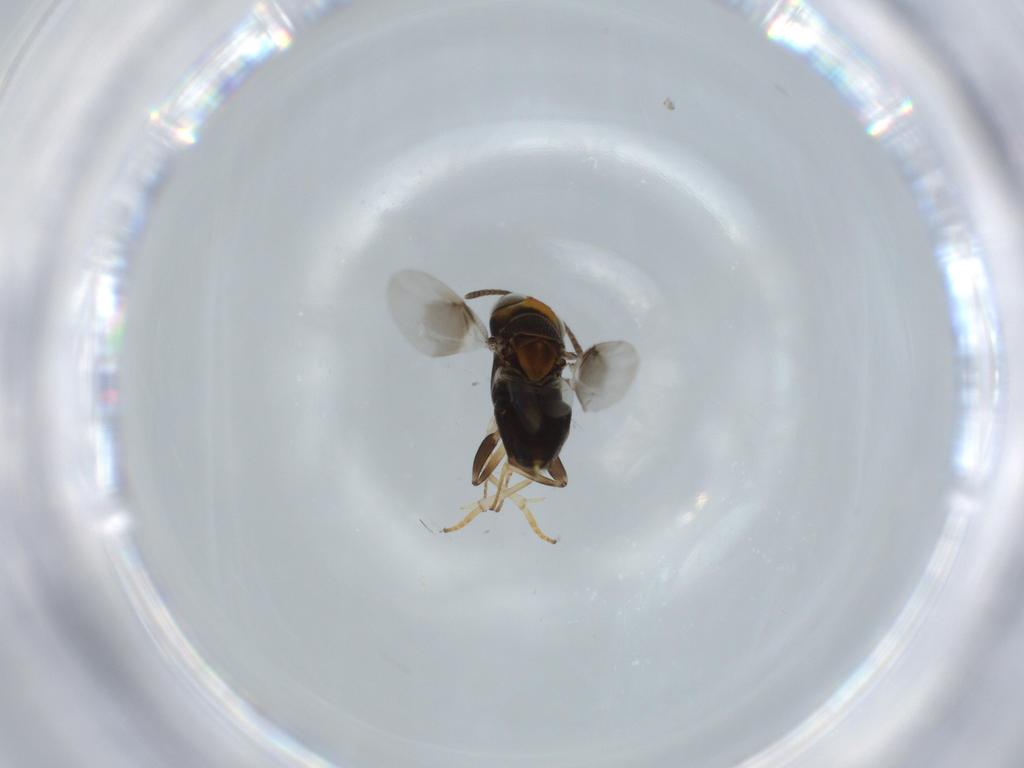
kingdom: Animalia
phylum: Arthropoda
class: Insecta
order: Hymenoptera
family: Torymidae
